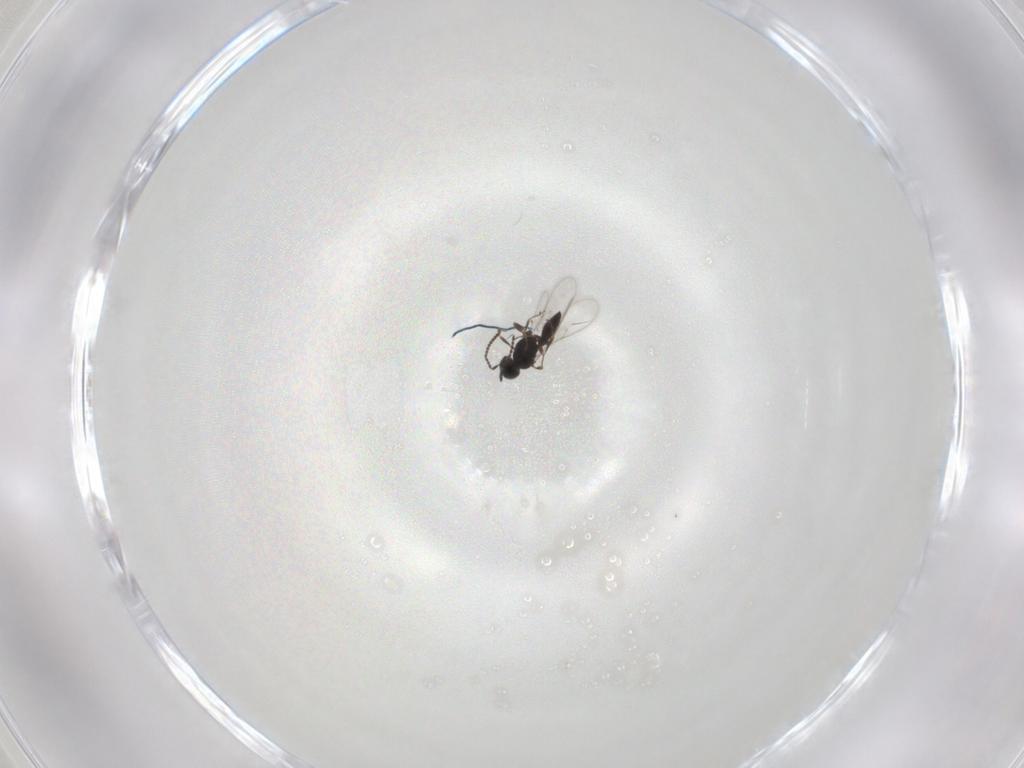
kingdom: Animalia
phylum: Arthropoda
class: Insecta
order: Hymenoptera
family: Scelionidae
